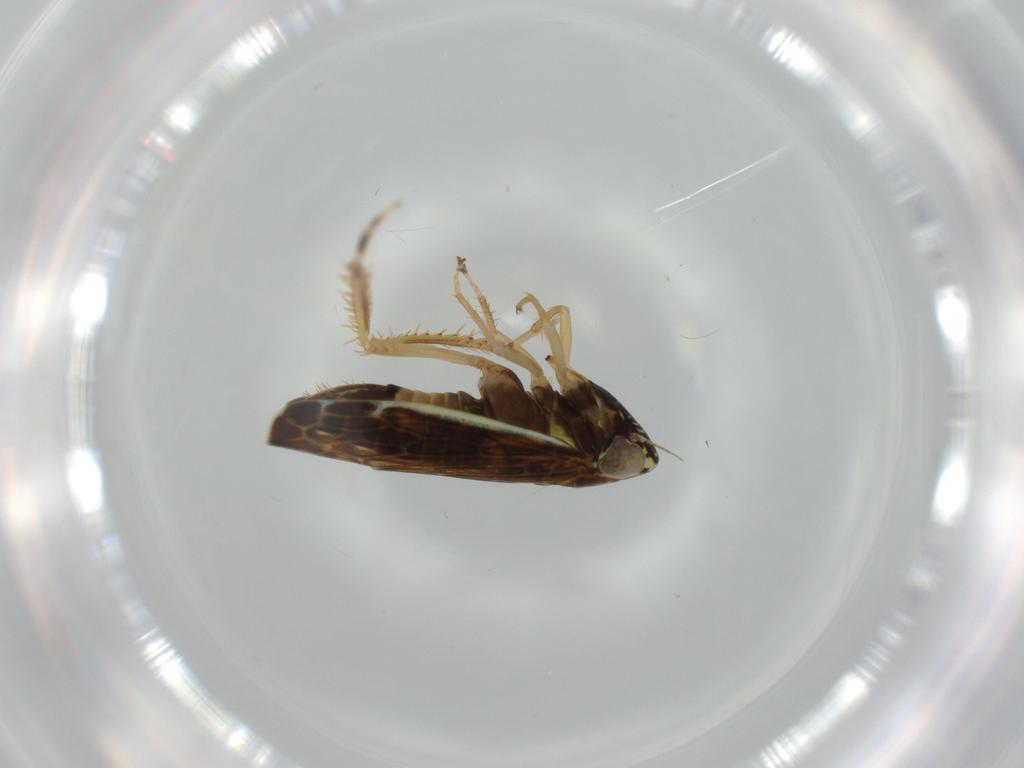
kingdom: Animalia
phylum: Arthropoda
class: Insecta
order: Hemiptera
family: Cicadellidae
